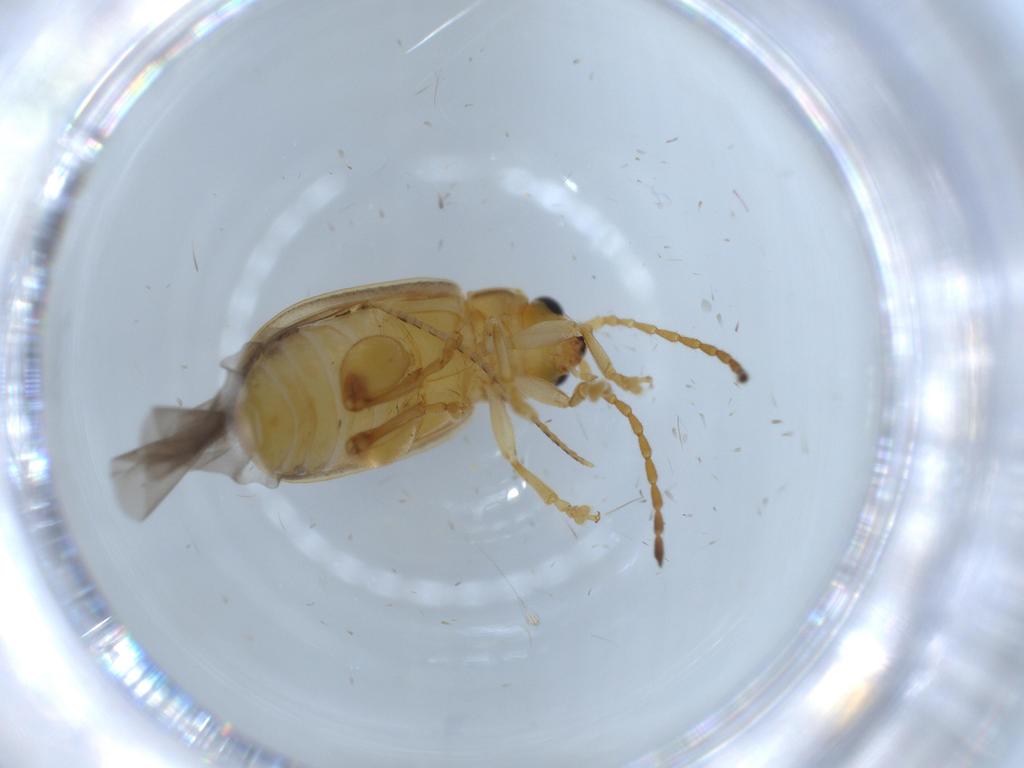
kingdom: Animalia
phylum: Arthropoda
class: Insecta
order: Coleoptera
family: Chrysomelidae
